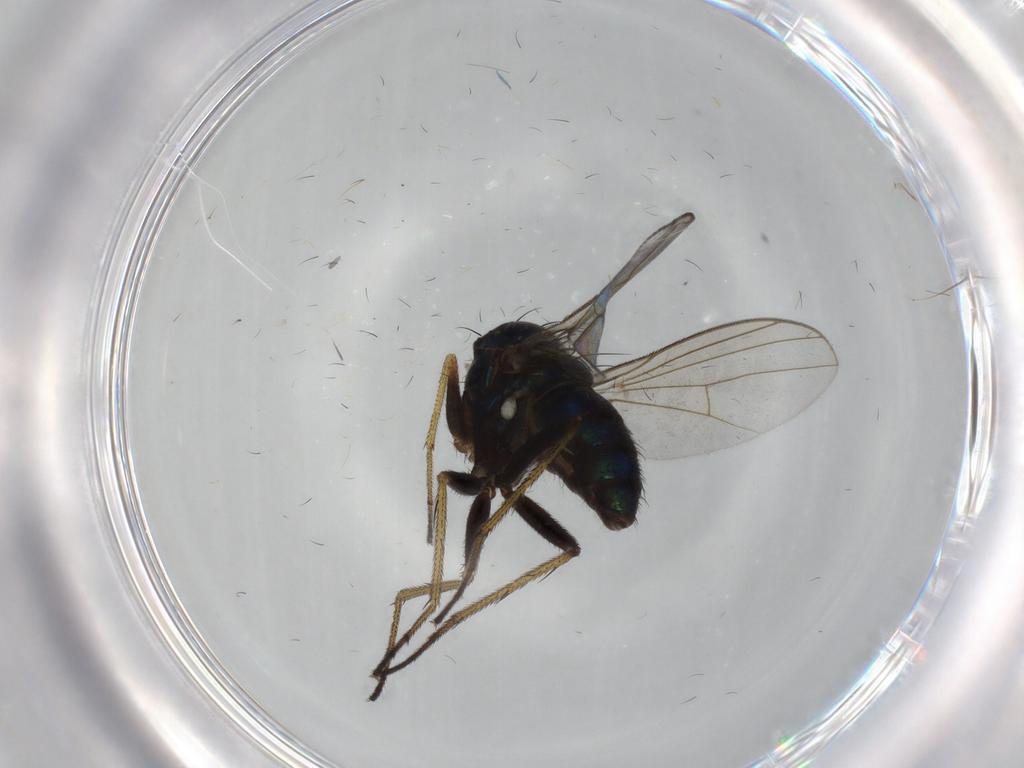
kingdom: Animalia
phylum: Arthropoda
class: Insecta
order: Diptera
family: Dolichopodidae
